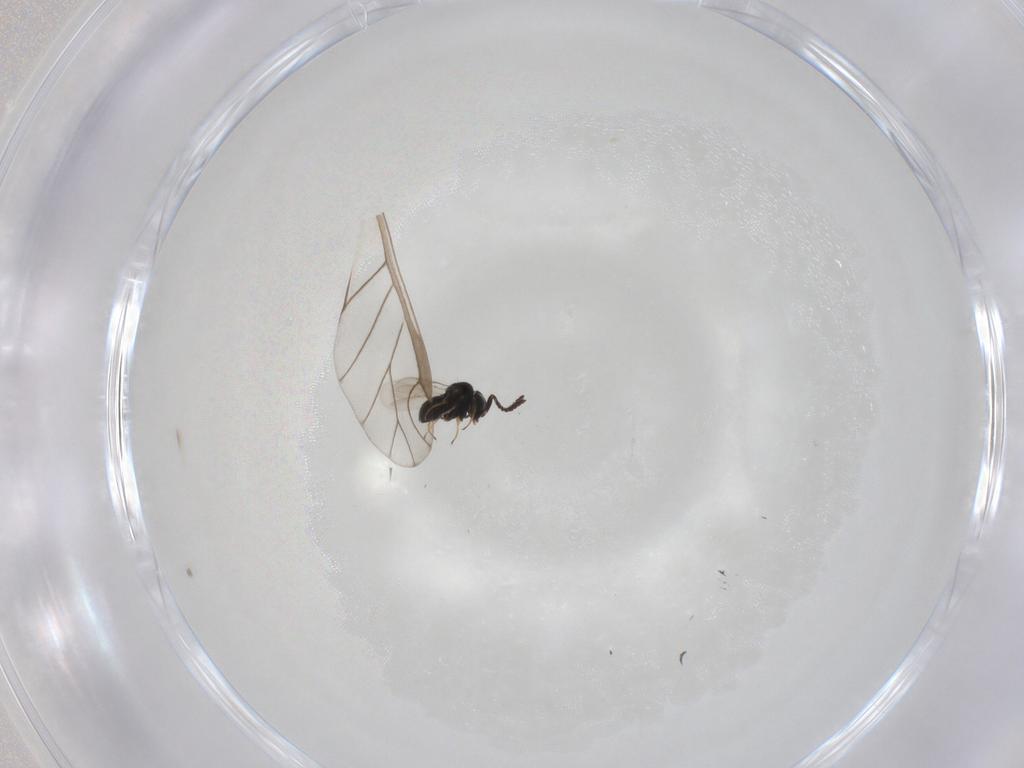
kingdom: Animalia
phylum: Arthropoda
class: Insecta
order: Hymenoptera
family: Scelionidae
